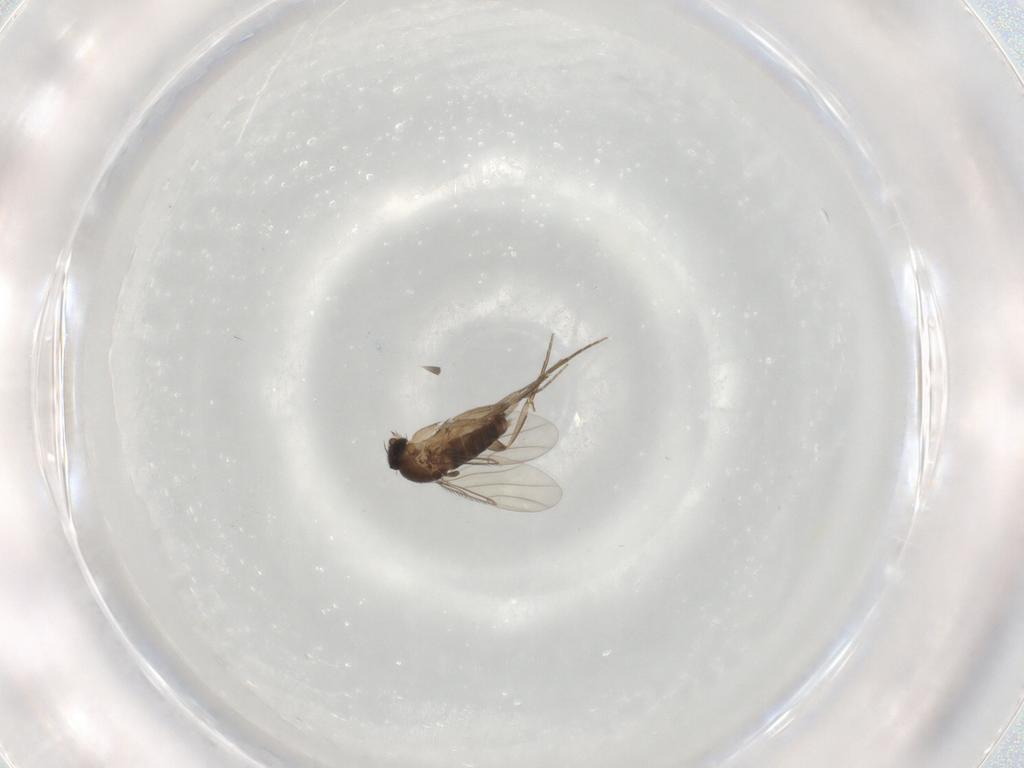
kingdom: Animalia
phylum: Arthropoda
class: Insecta
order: Diptera
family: Phoridae
